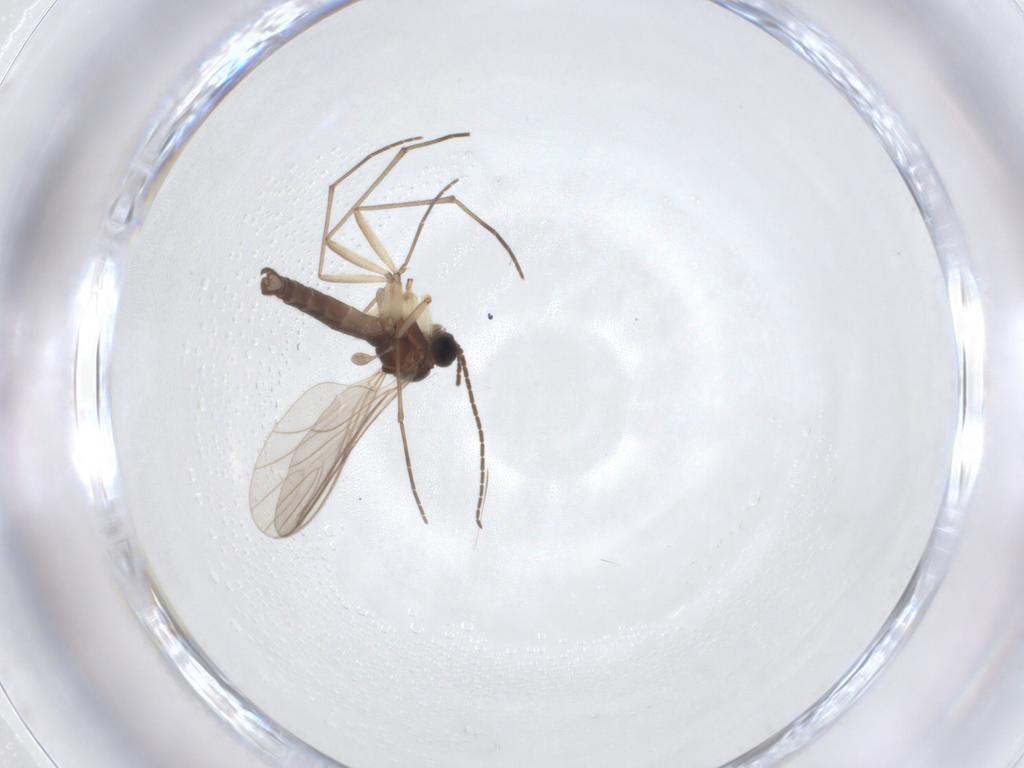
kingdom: Animalia
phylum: Arthropoda
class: Insecta
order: Diptera
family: Sciaridae
